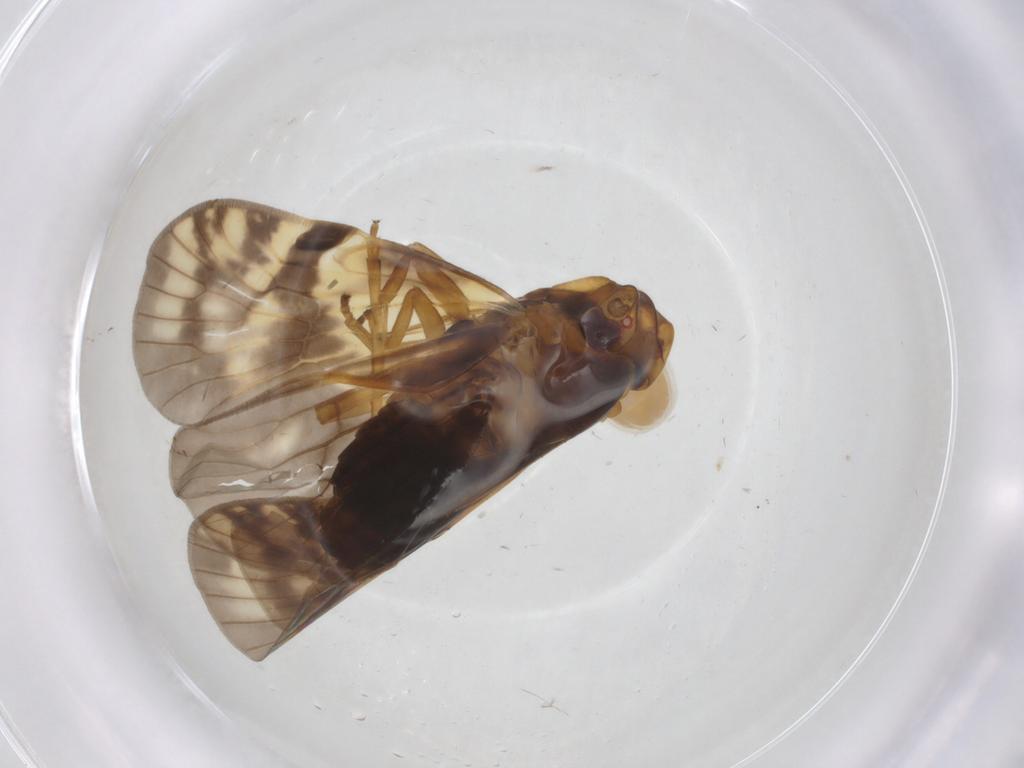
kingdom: Animalia
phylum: Arthropoda
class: Insecta
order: Hemiptera
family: Cixiidae
